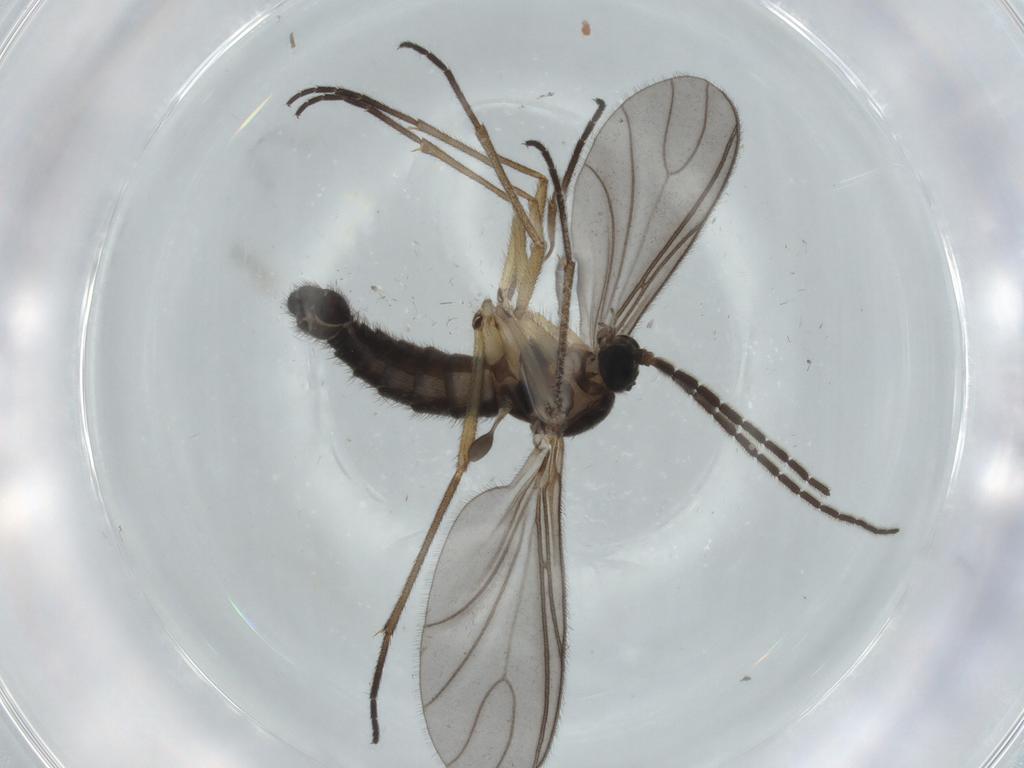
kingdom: Animalia
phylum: Arthropoda
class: Insecta
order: Diptera
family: Sciaridae
